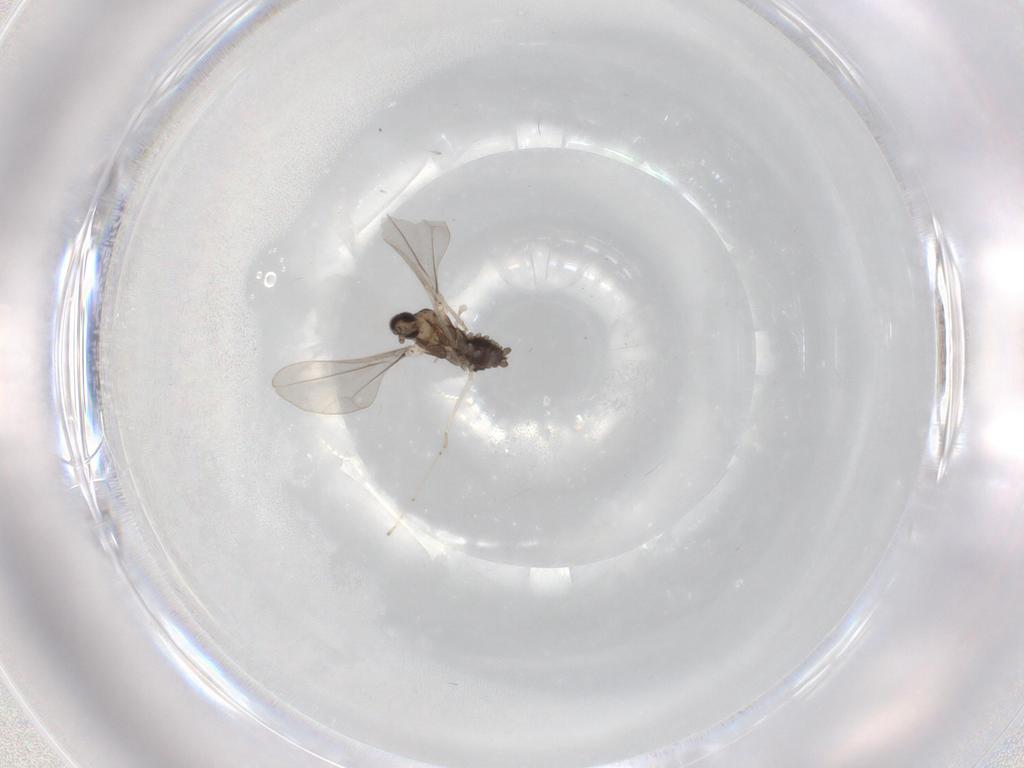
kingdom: Animalia
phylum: Arthropoda
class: Insecta
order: Diptera
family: Cecidomyiidae
